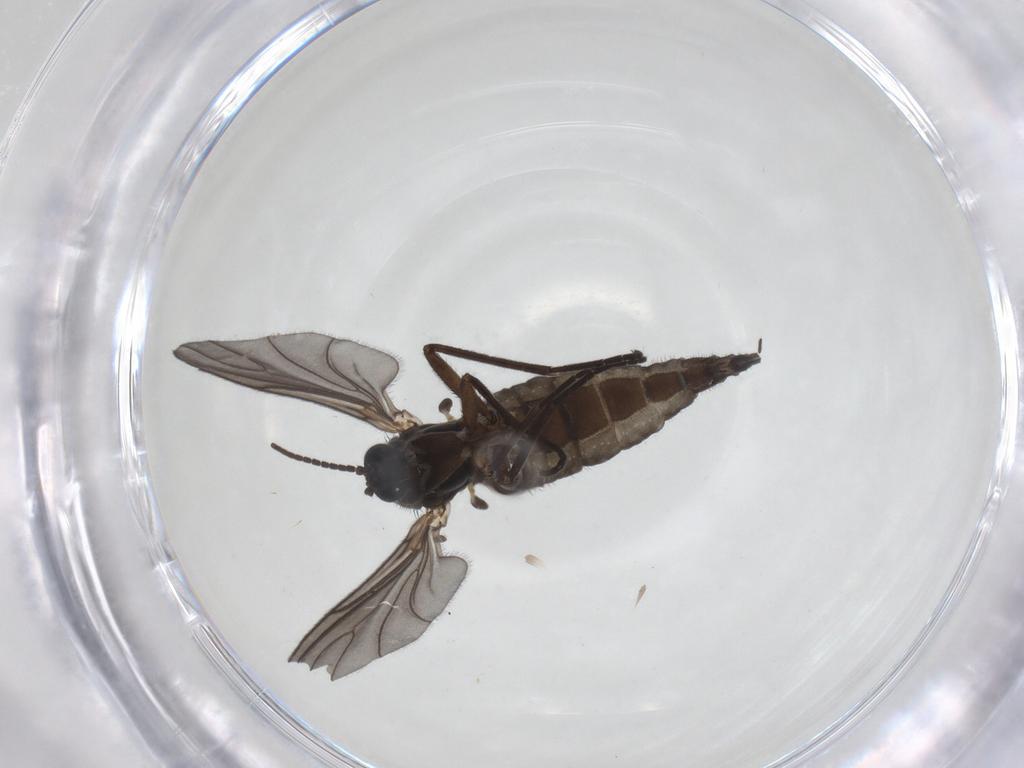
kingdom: Animalia
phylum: Arthropoda
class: Insecta
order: Diptera
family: Sciaridae
